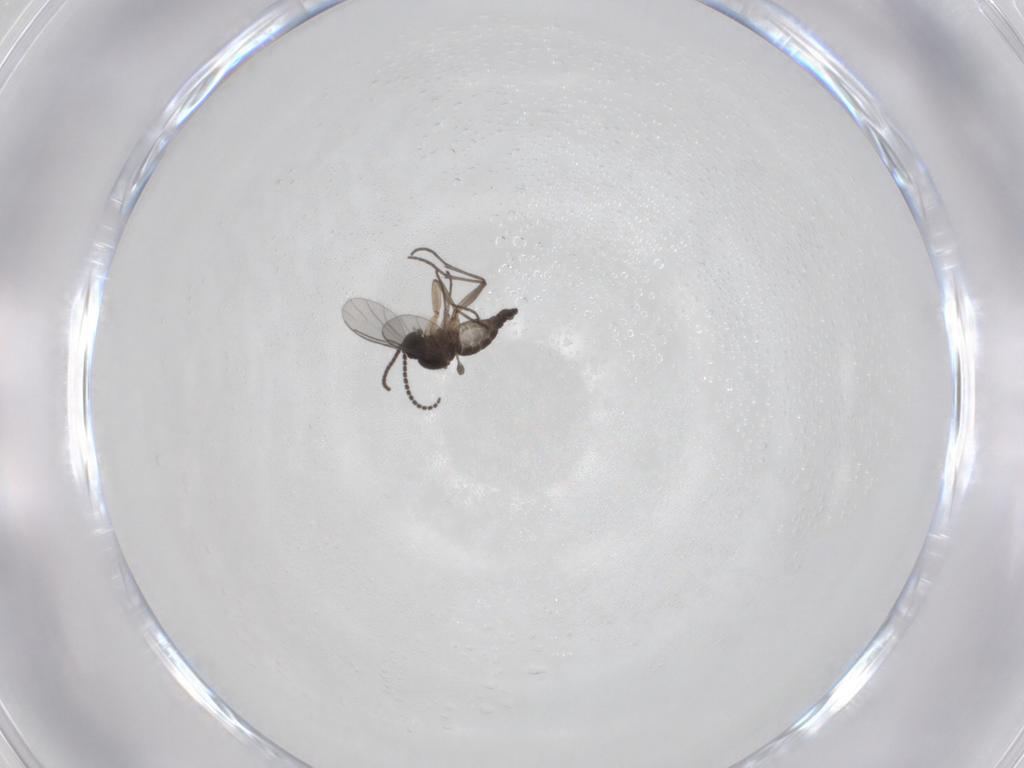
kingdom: Animalia
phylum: Arthropoda
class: Insecta
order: Diptera
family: Sciaridae
